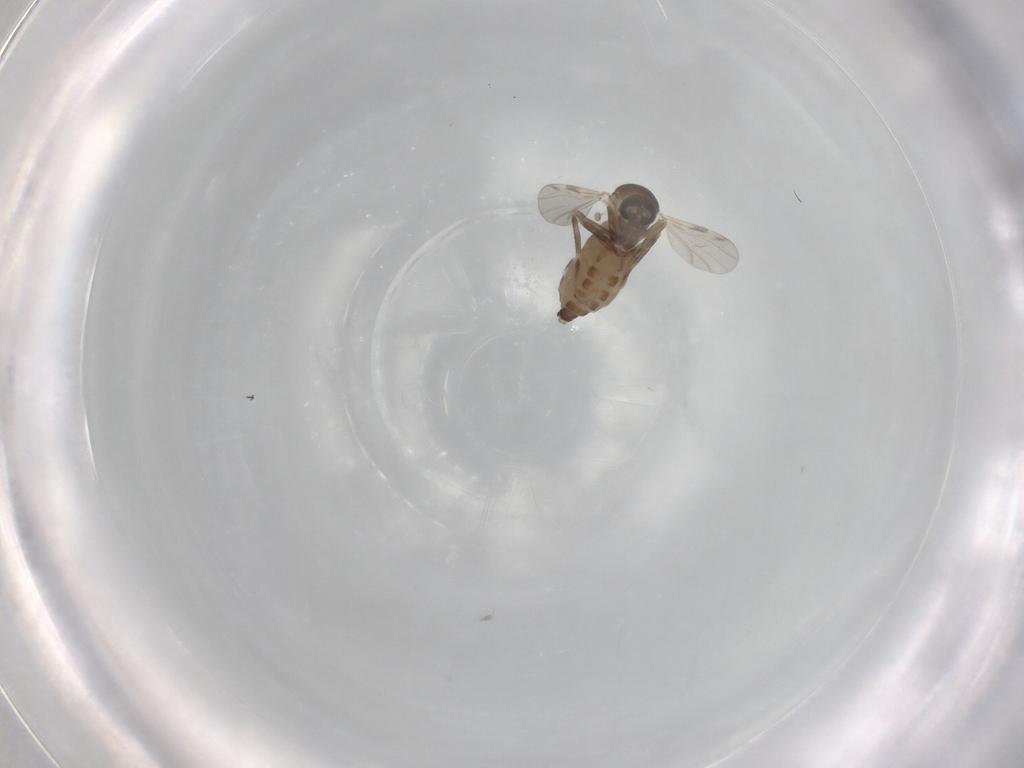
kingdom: Animalia
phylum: Arthropoda
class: Insecta
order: Diptera
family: Ceratopogonidae
